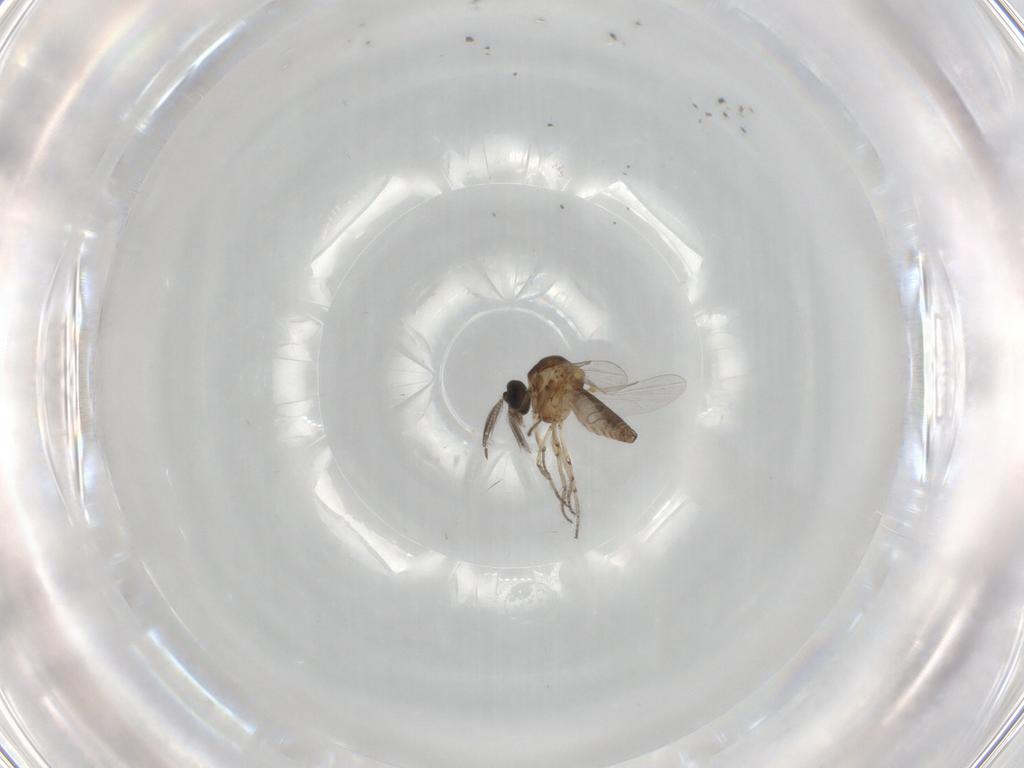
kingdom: Animalia
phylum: Arthropoda
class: Insecta
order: Diptera
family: Ceratopogonidae
